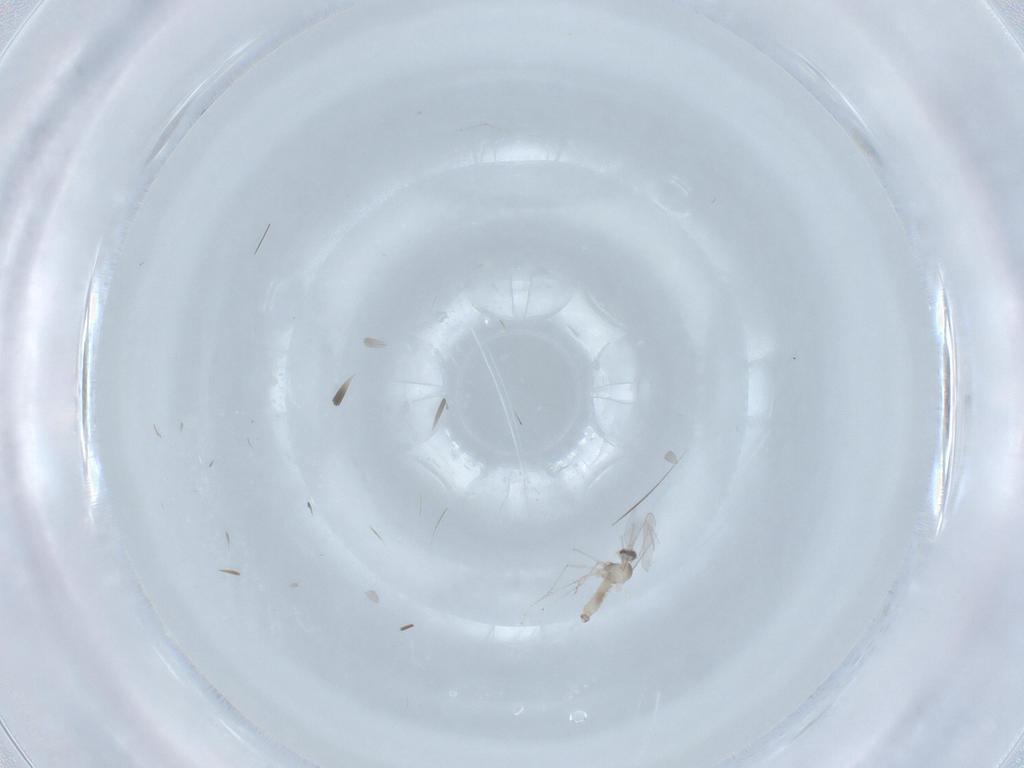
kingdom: Animalia
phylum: Arthropoda
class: Insecta
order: Diptera
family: Cecidomyiidae
